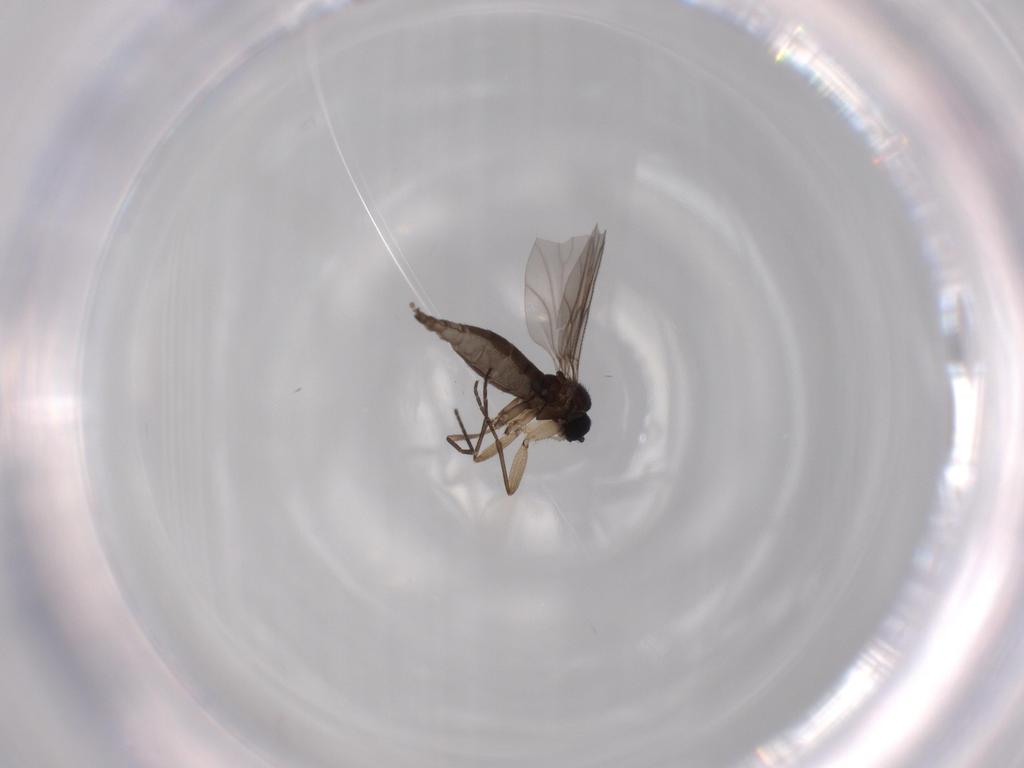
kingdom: Animalia
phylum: Arthropoda
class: Insecta
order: Diptera
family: Sciaridae
